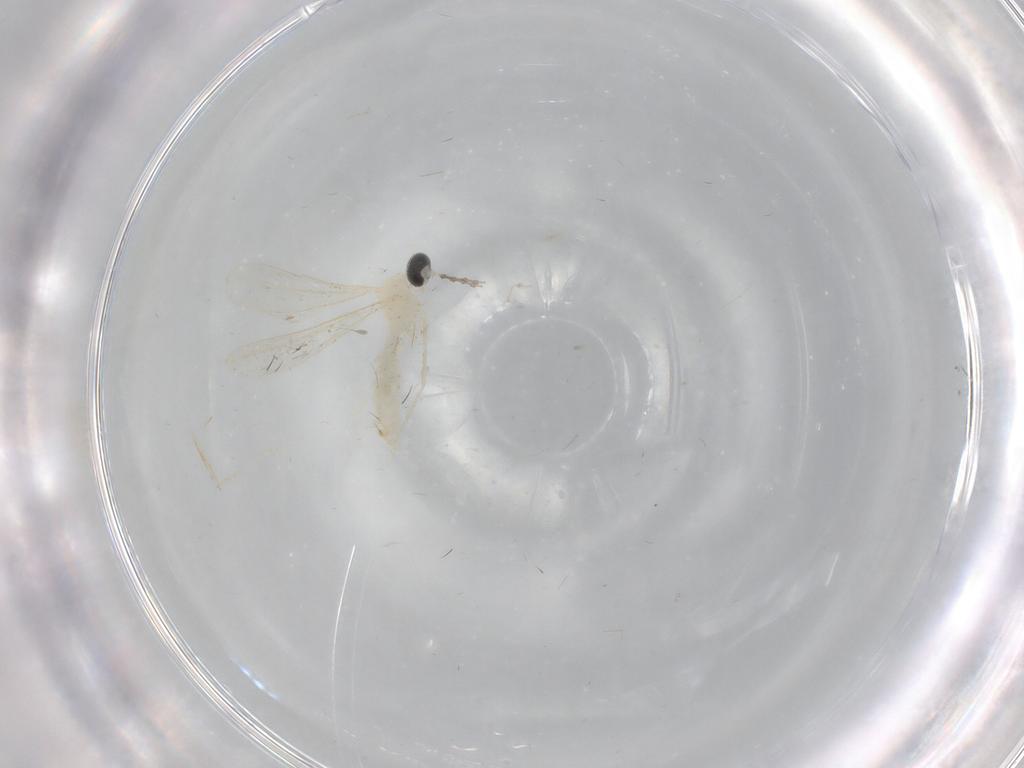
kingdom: Animalia
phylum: Arthropoda
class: Insecta
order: Diptera
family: Cecidomyiidae
